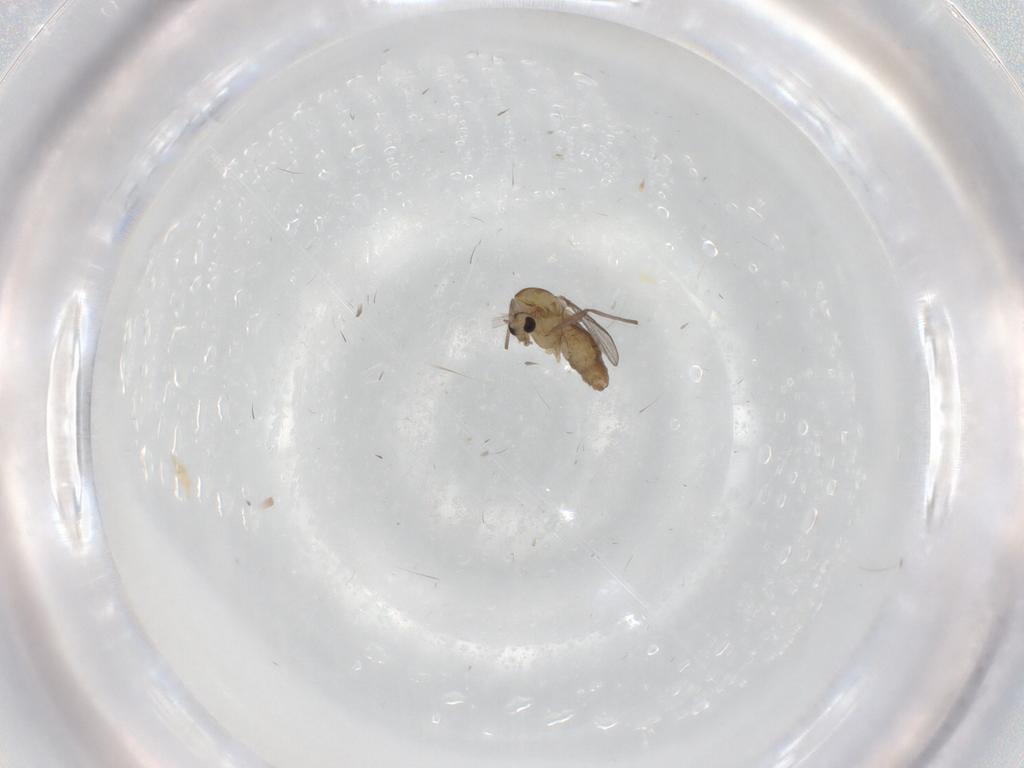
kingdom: Animalia
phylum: Arthropoda
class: Insecta
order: Diptera
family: Chironomidae
